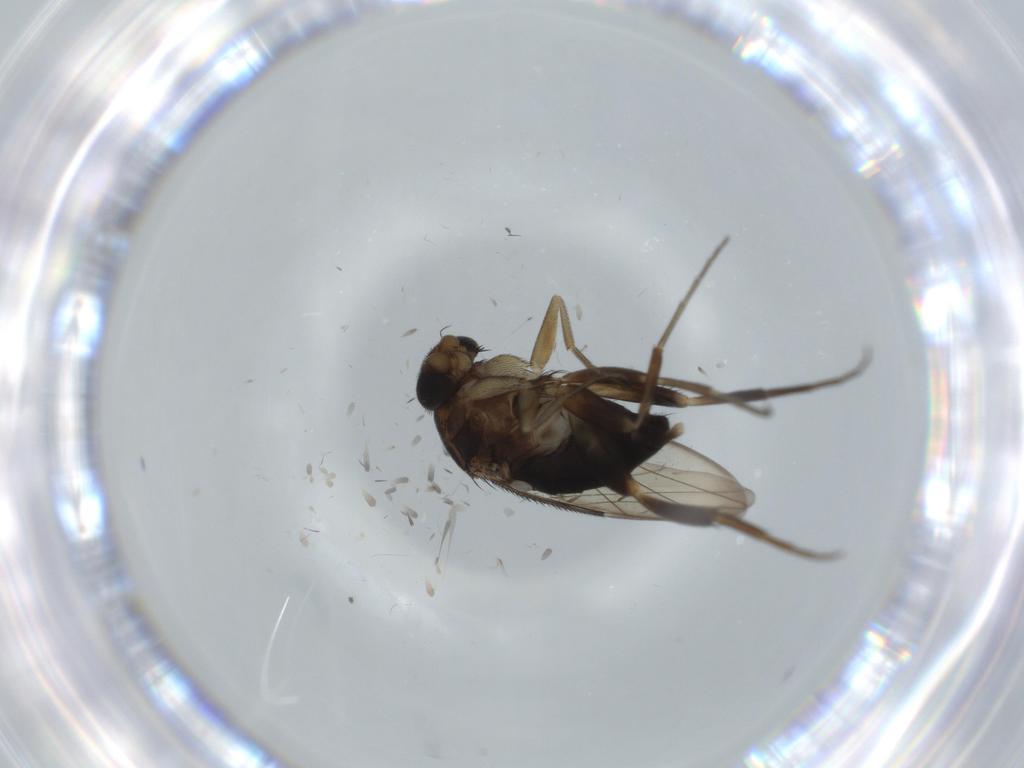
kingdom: Animalia
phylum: Arthropoda
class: Insecta
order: Diptera
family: Phoridae
